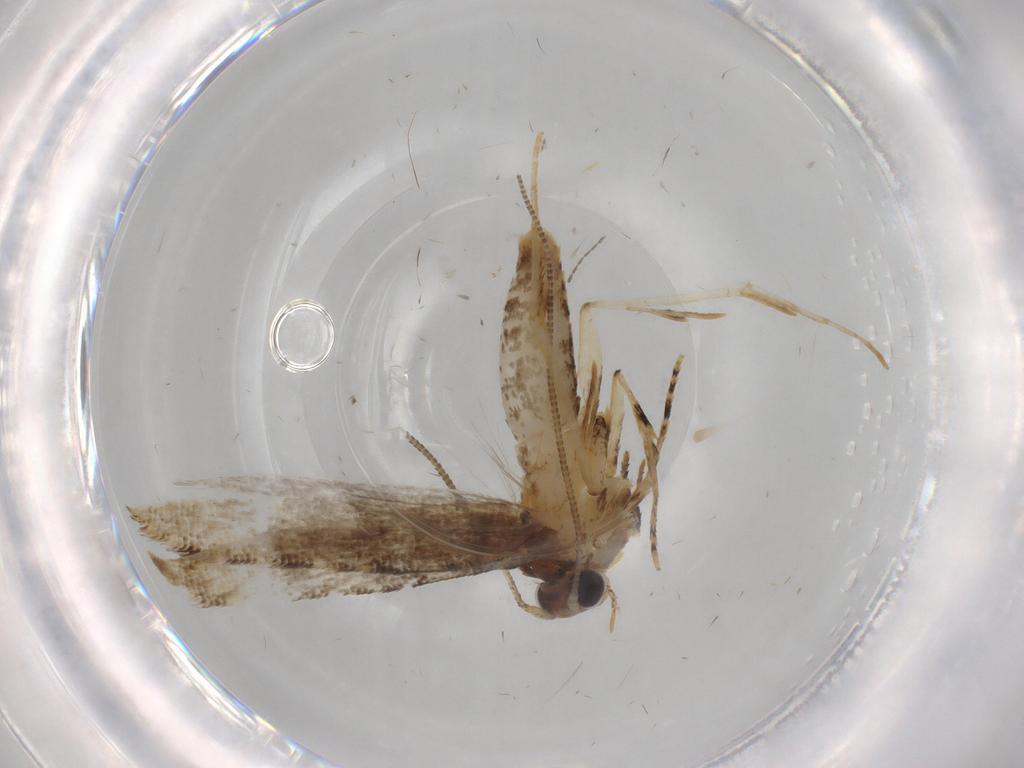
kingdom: Animalia
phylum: Arthropoda
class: Insecta
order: Lepidoptera
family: Tineidae
